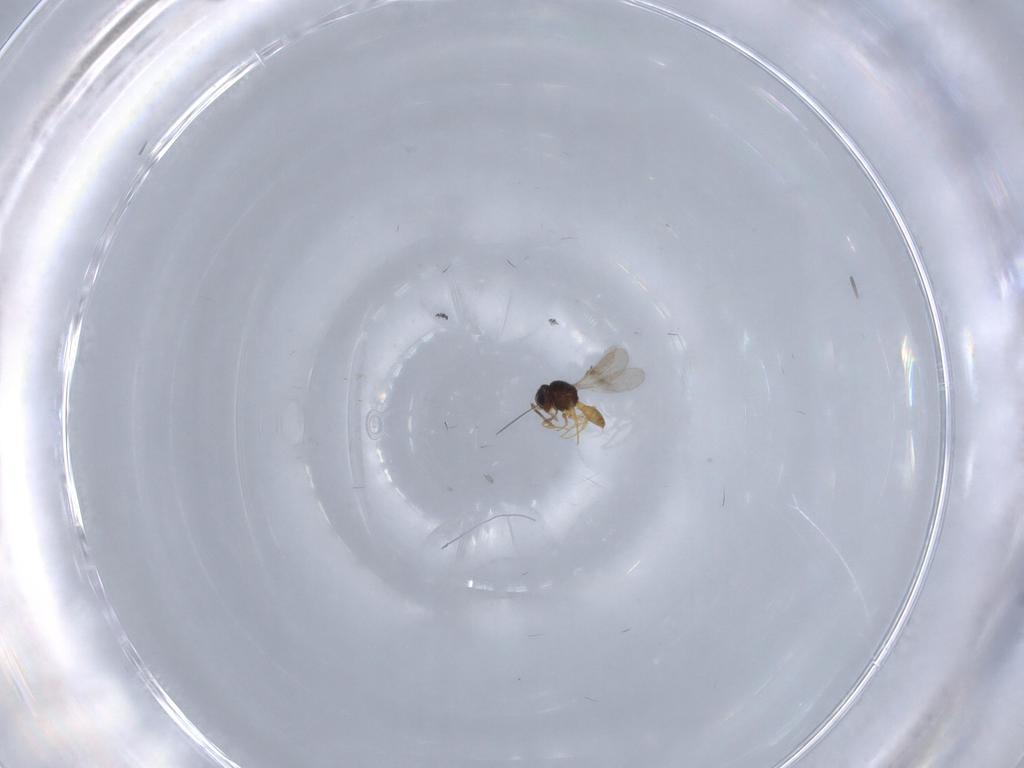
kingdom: Animalia
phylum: Arthropoda
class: Insecta
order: Hymenoptera
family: Scelionidae
